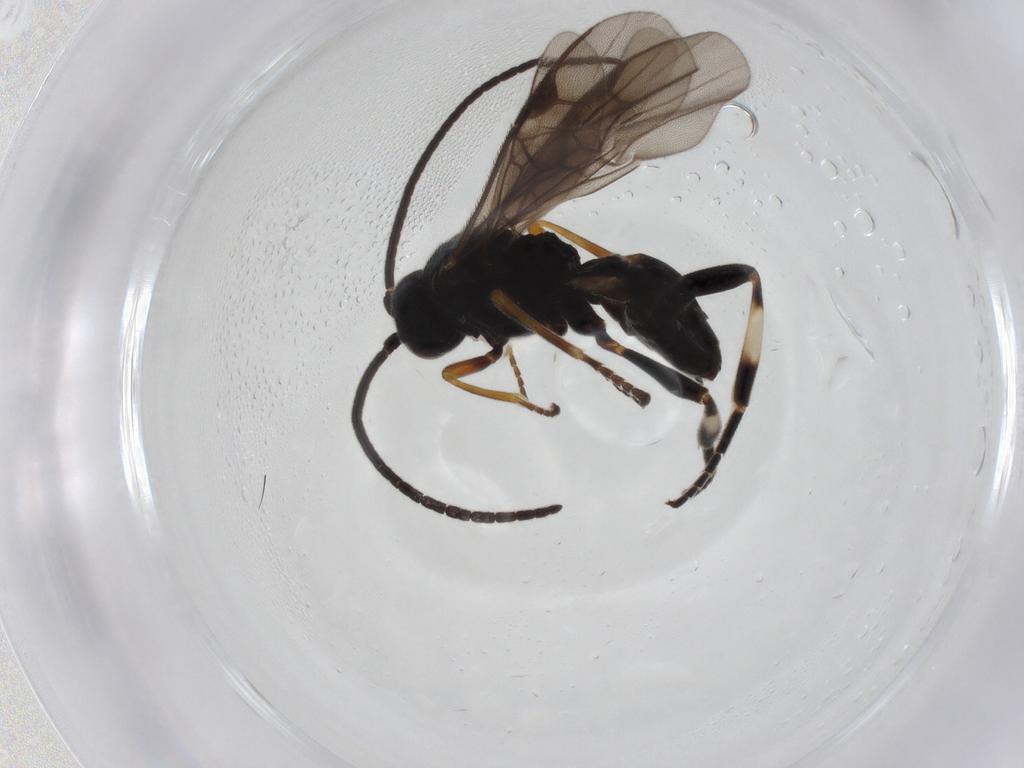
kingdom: Animalia
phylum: Arthropoda
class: Insecta
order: Hymenoptera
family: Braconidae
